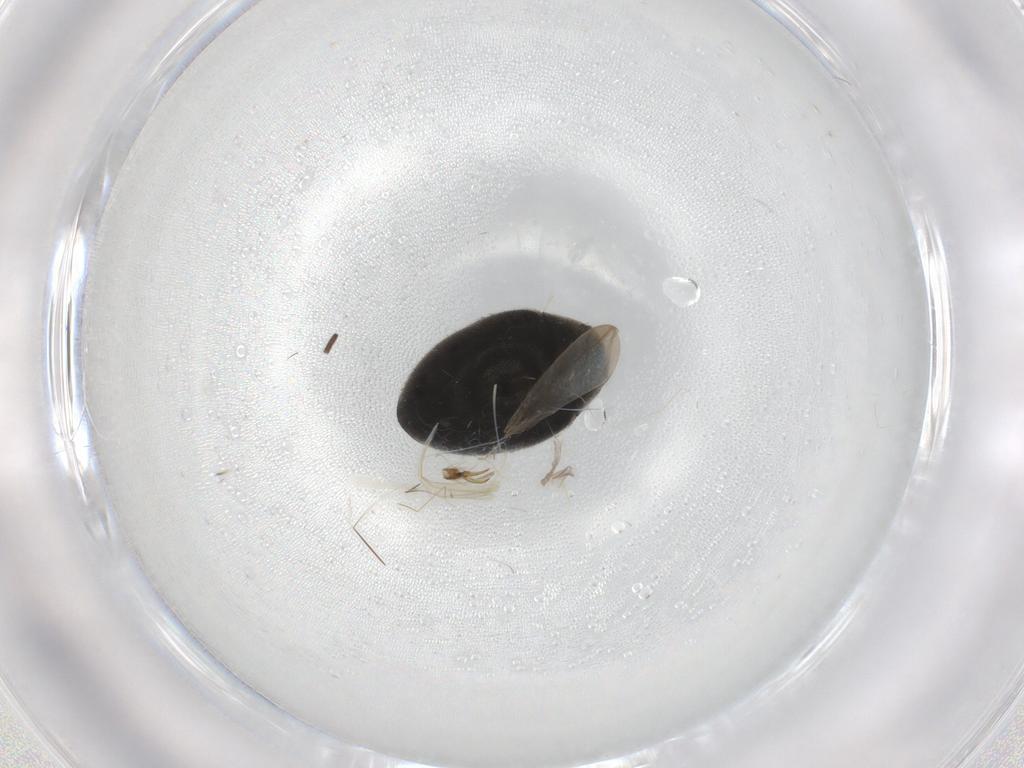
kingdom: Animalia
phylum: Arthropoda
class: Insecta
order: Coleoptera
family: Limnichidae
